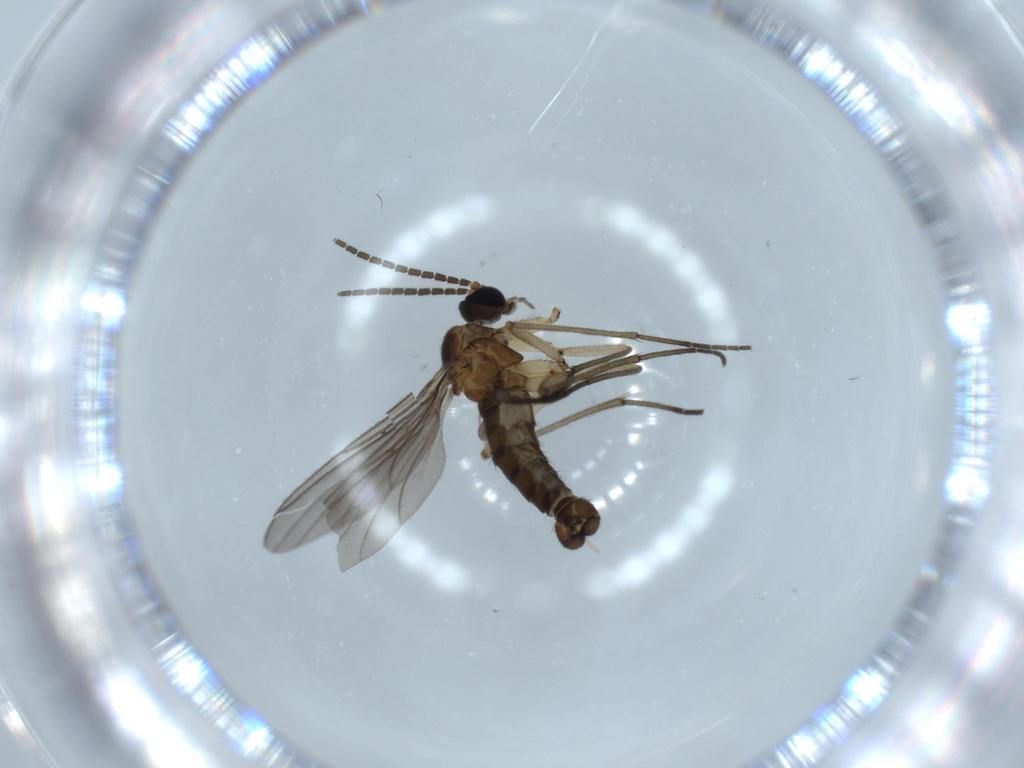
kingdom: Animalia
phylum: Arthropoda
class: Insecta
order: Diptera
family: Sciaridae
